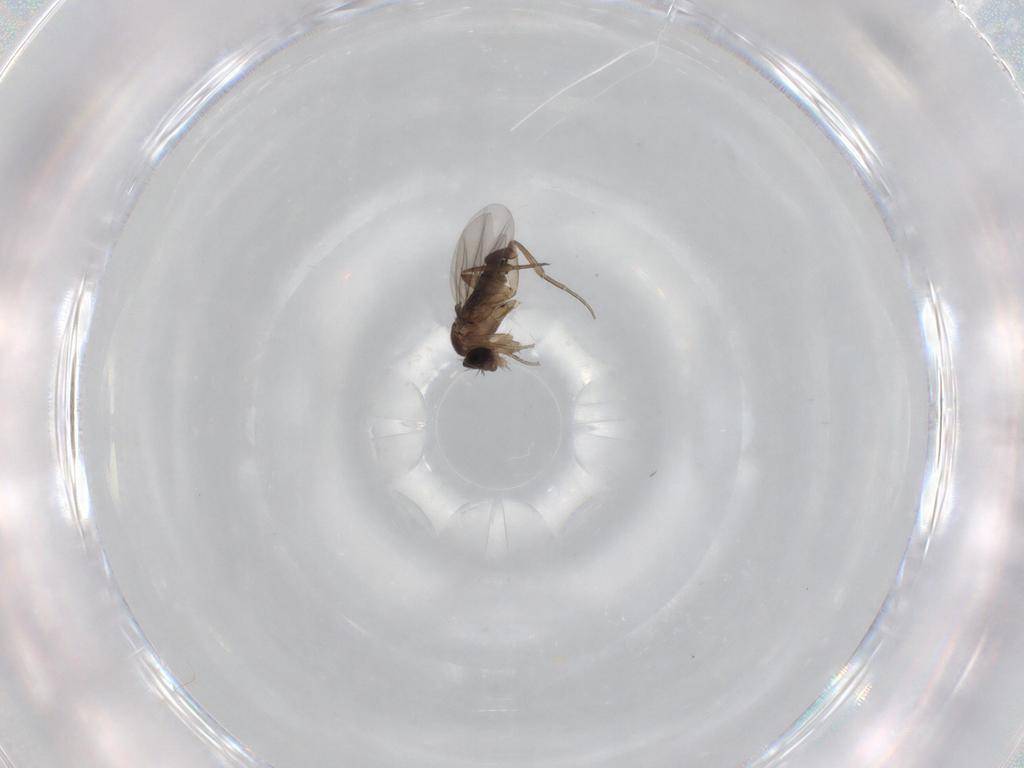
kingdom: Animalia
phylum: Arthropoda
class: Insecta
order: Diptera
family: Phoridae
